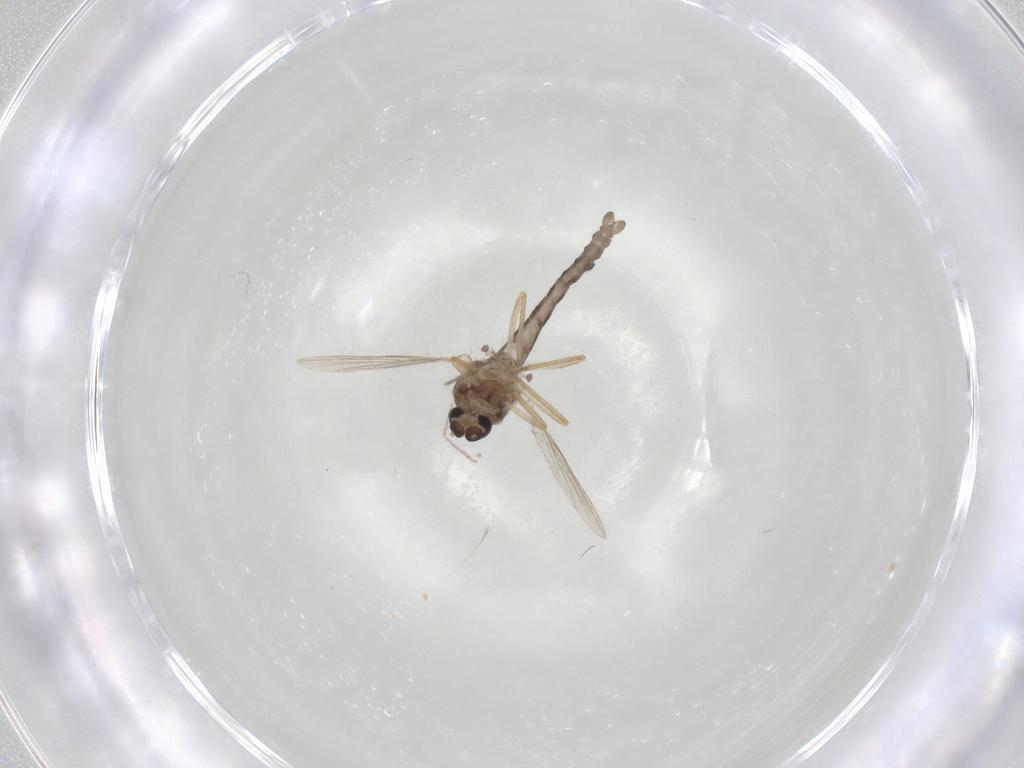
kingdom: Animalia
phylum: Arthropoda
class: Insecta
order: Diptera
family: Ceratopogonidae
